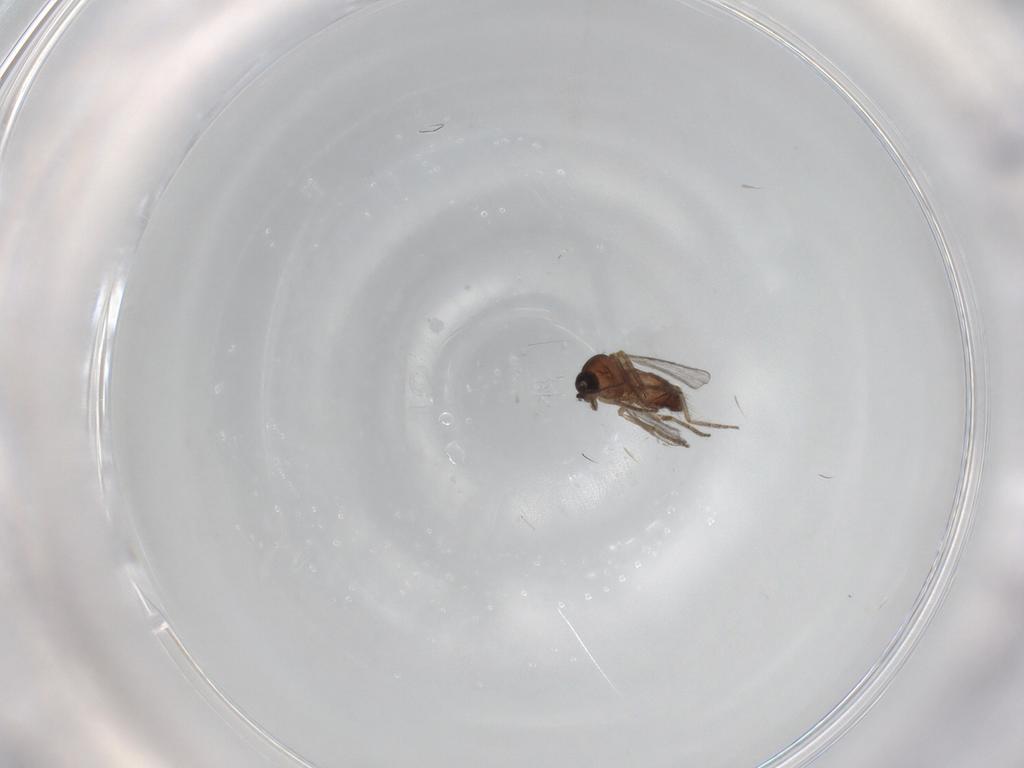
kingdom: Animalia
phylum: Arthropoda
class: Insecta
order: Diptera
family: Ceratopogonidae
